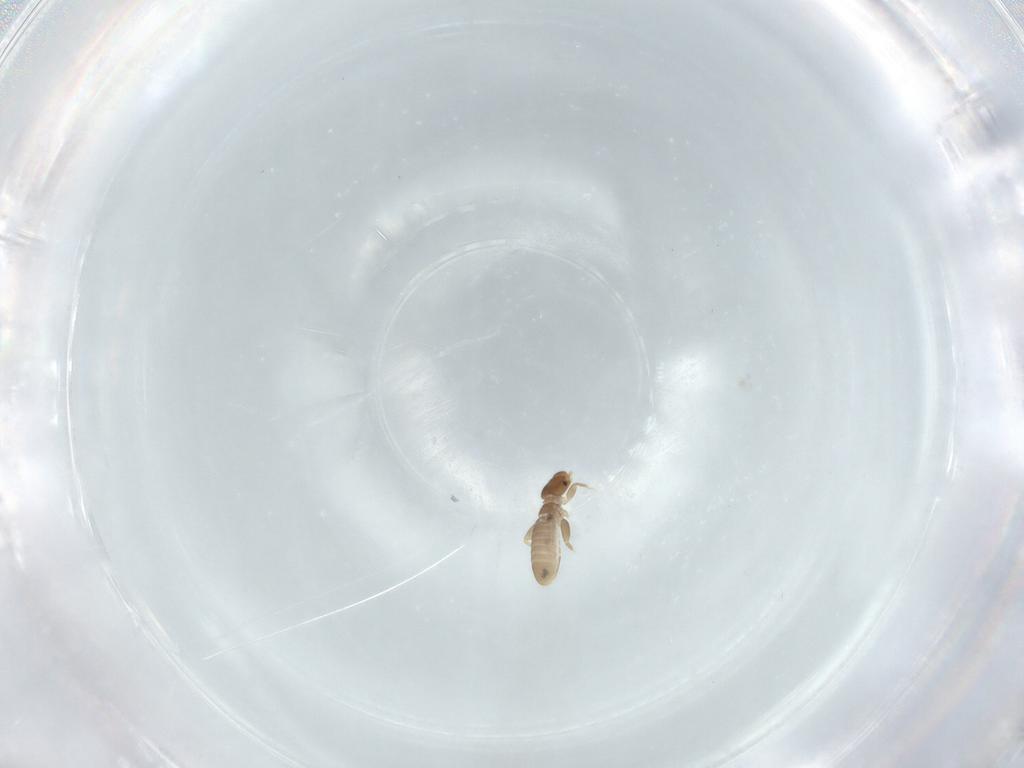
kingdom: Animalia
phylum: Arthropoda
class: Insecta
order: Psocodea
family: Liposcelididae
